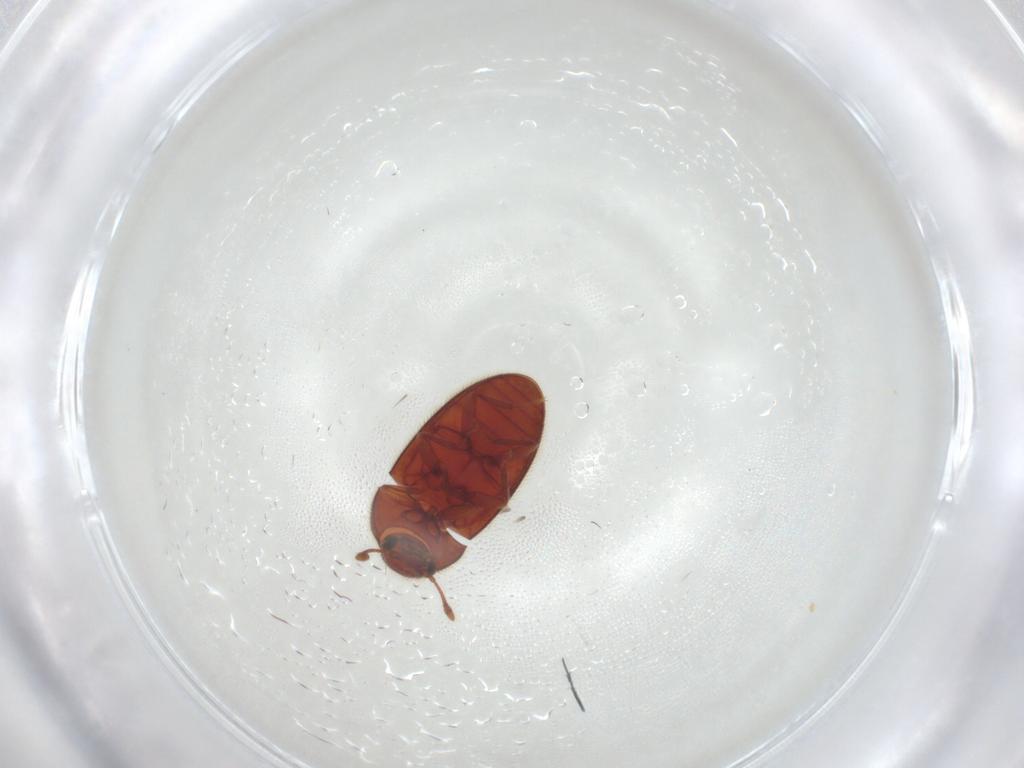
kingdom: Animalia
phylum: Arthropoda
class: Insecta
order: Coleoptera
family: Biphyllidae
